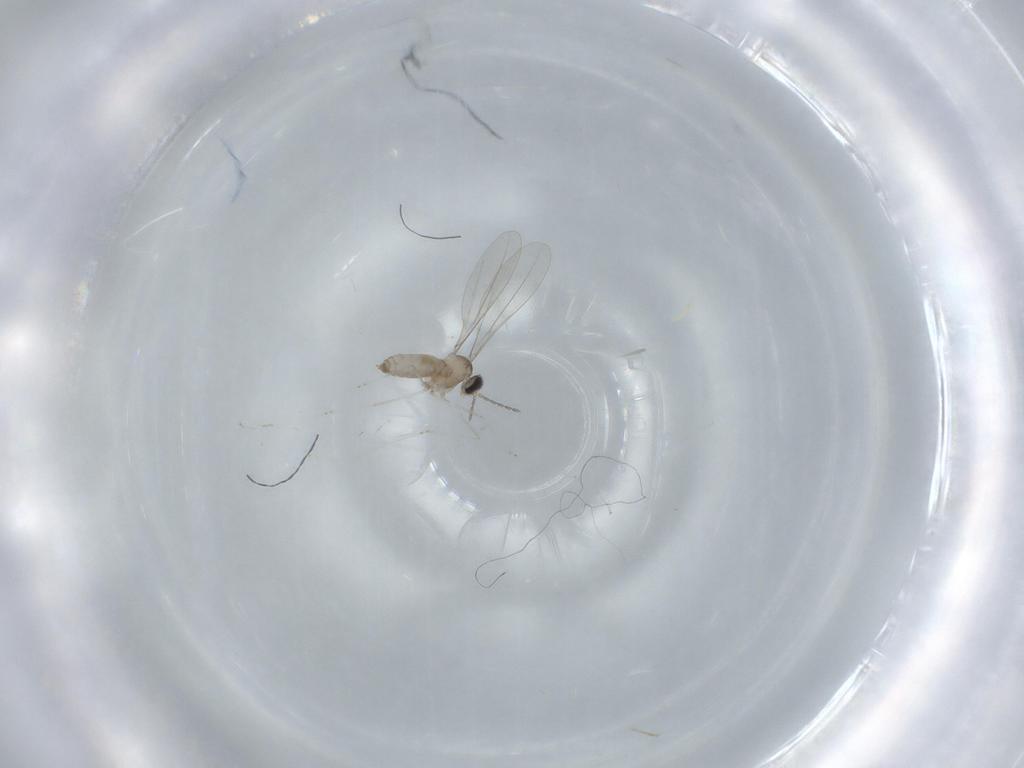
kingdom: Animalia
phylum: Arthropoda
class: Insecta
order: Diptera
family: Cecidomyiidae
